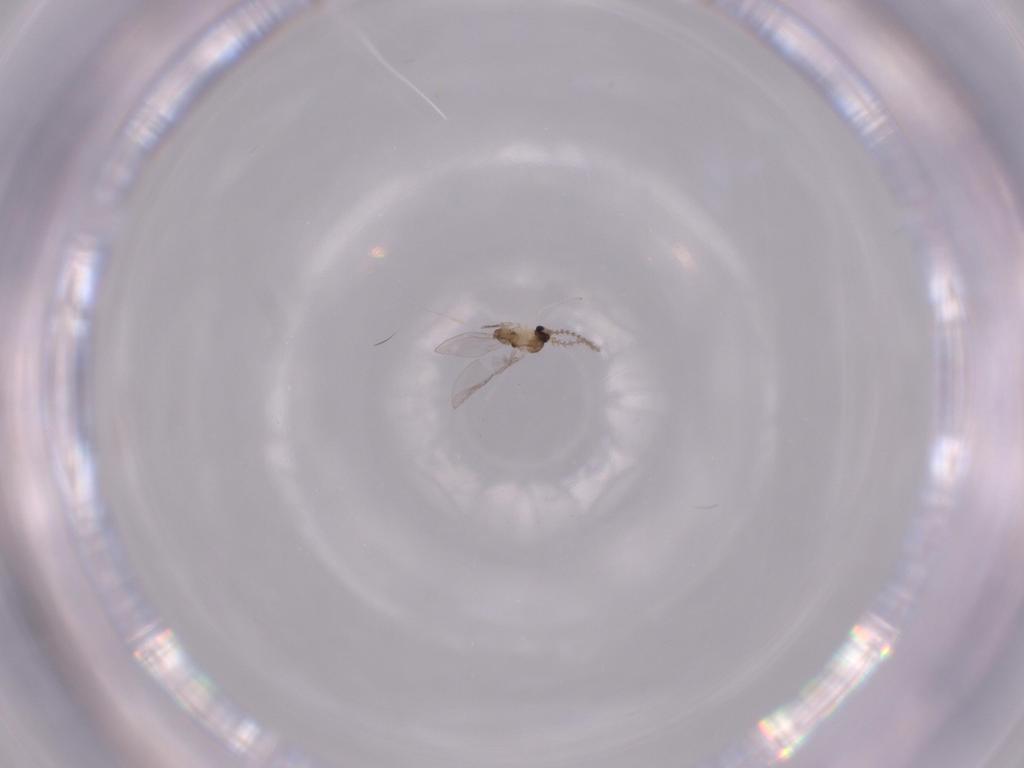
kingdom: Animalia
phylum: Arthropoda
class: Insecta
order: Diptera
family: Cecidomyiidae
